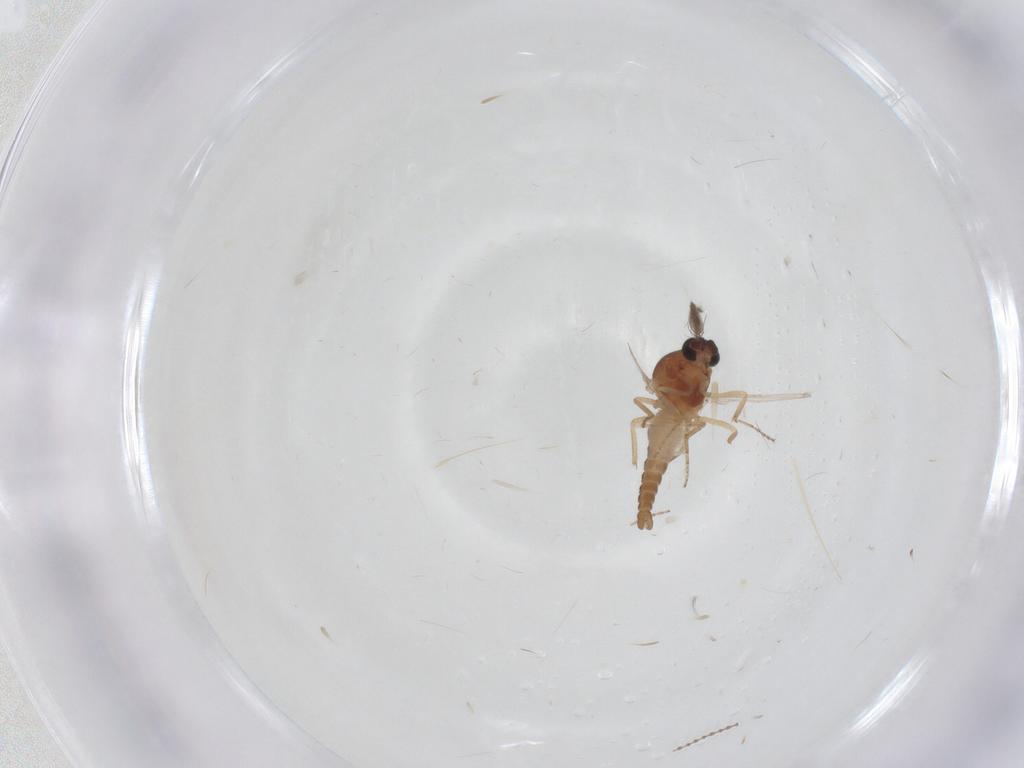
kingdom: Animalia
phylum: Arthropoda
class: Insecta
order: Diptera
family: Ceratopogonidae
